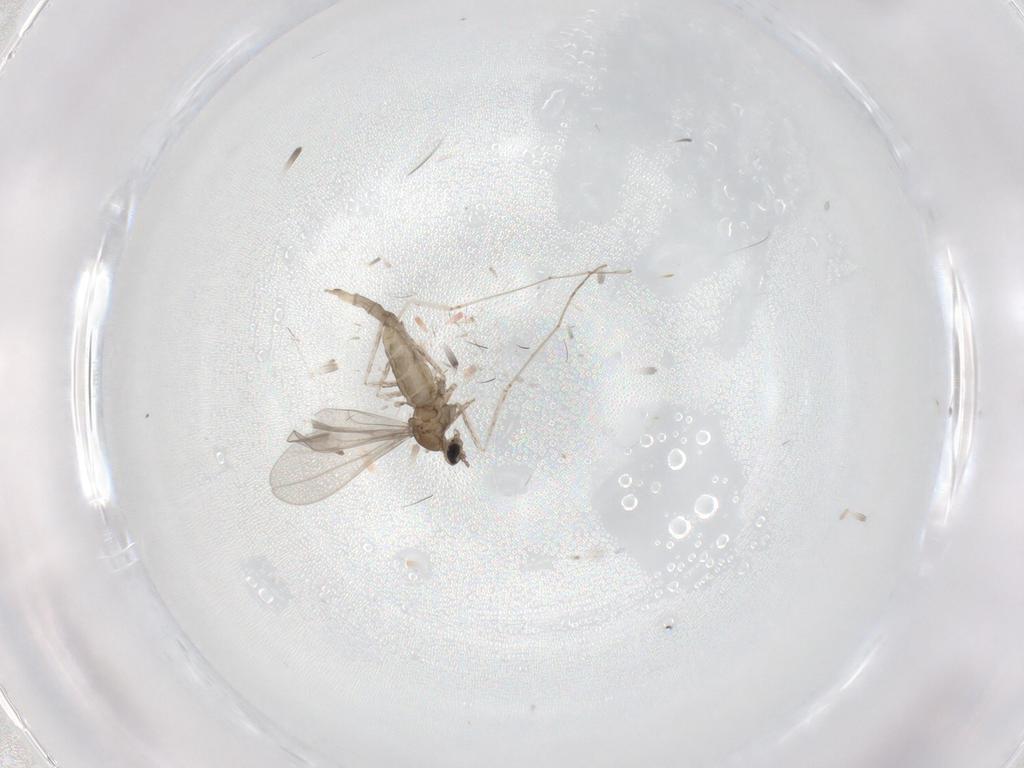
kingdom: Animalia
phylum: Arthropoda
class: Insecta
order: Diptera
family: Cecidomyiidae
